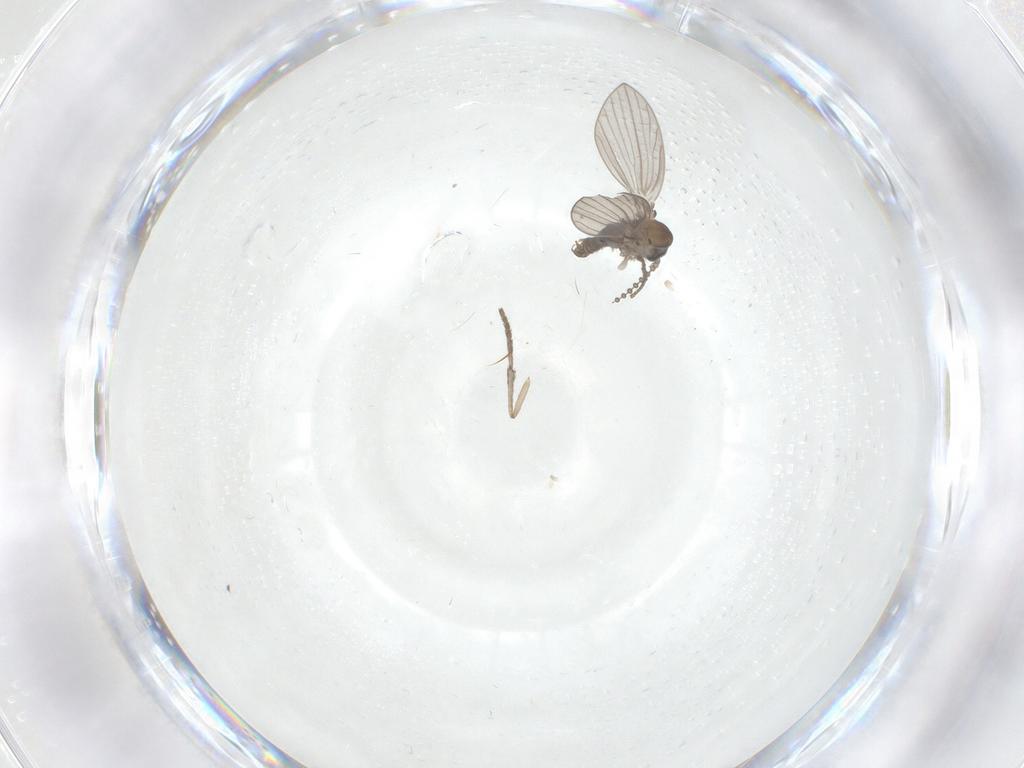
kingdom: Animalia
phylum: Arthropoda
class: Insecta
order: Diptera
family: Psychodidae
